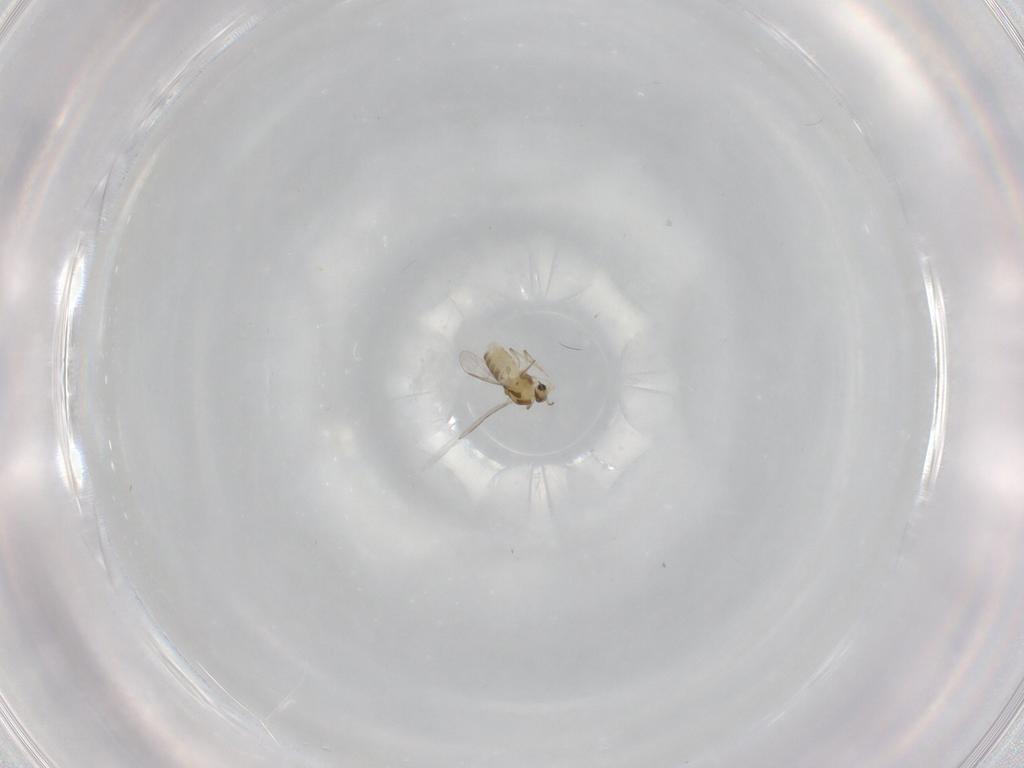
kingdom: Animalia
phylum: Arthropoda
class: Insecta
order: Diptera
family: Chironomidae
